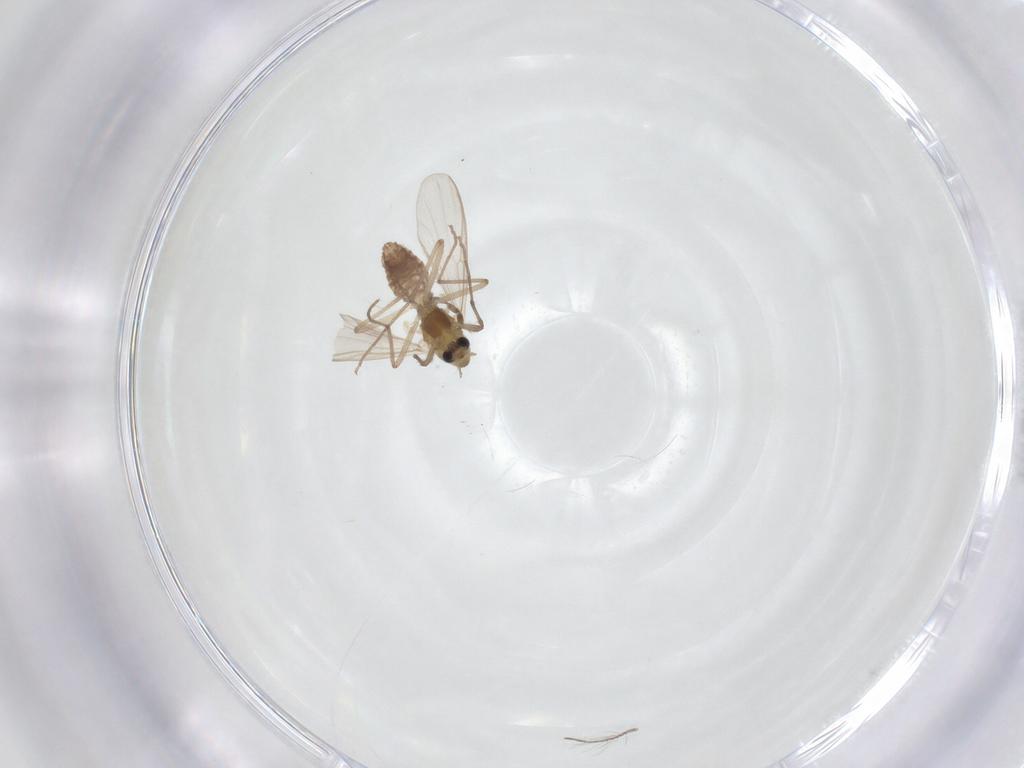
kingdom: Animalia
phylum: Arthropoda
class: Insecta
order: Diptera
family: Chironomidae
